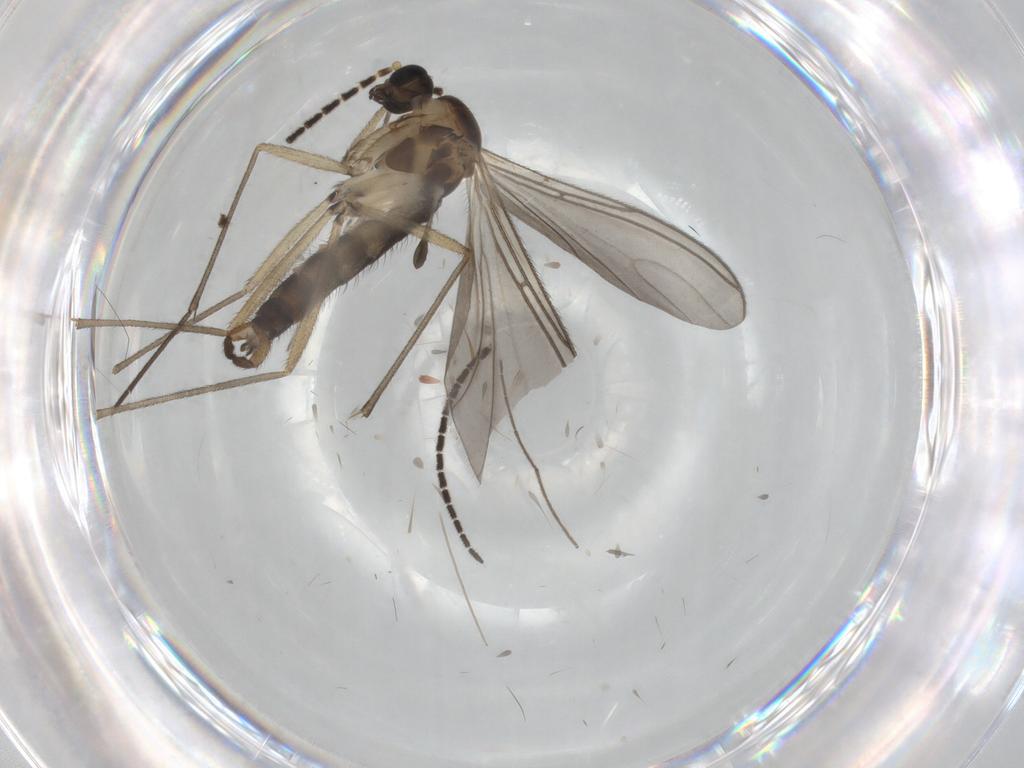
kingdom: Animalia
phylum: Arthropoda
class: Insecta
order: Diptera
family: Sciaridae
